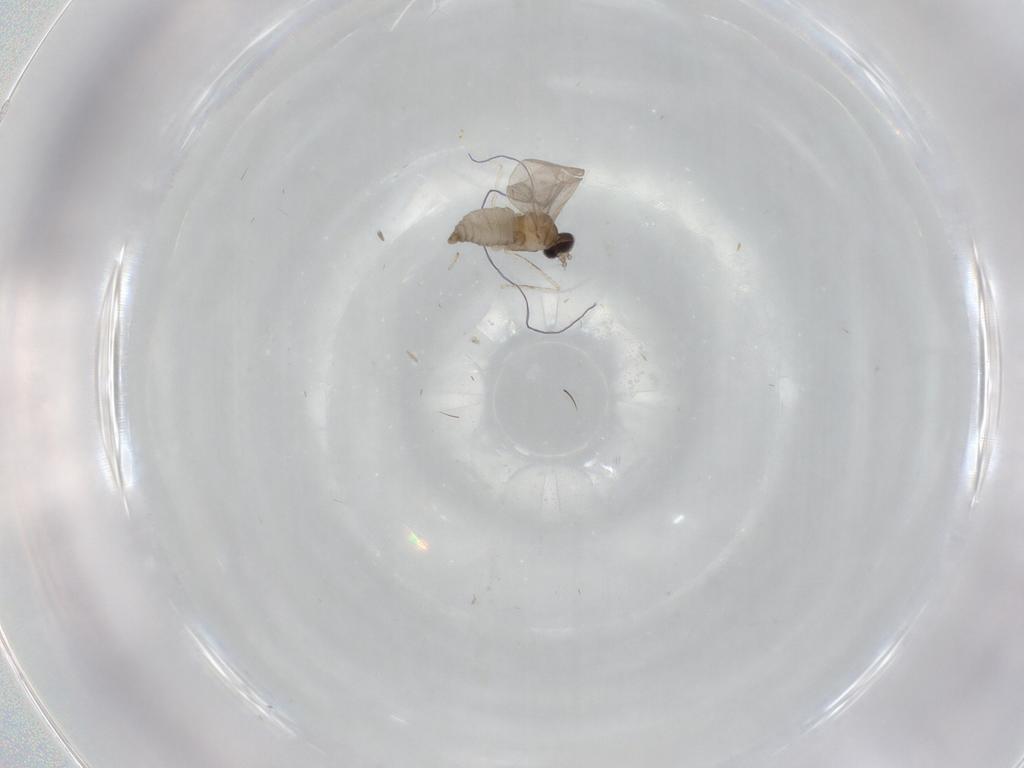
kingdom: Animalia
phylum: Arthropoda
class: Insecta
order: Diptera
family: Cecidomyiidae
